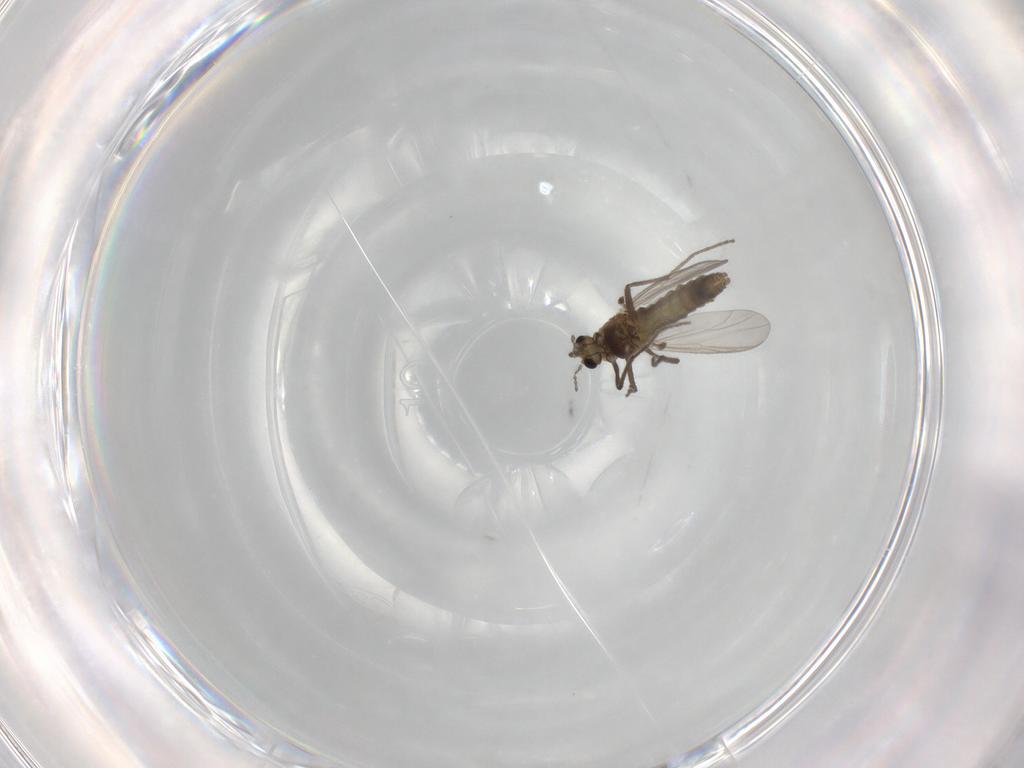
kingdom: Animalia
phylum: Arthropoda
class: Insecta
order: Diptera
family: Chironomidae
